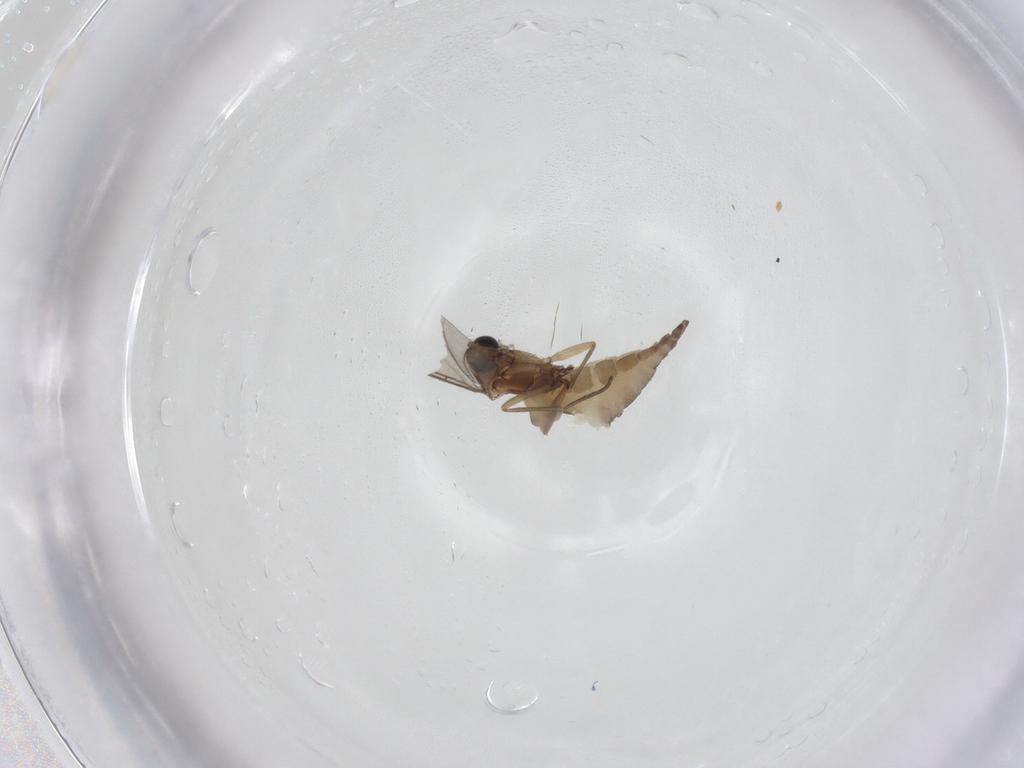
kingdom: Animalia
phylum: Arthropoda
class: Insecta
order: Diptera
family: Sciaridae
